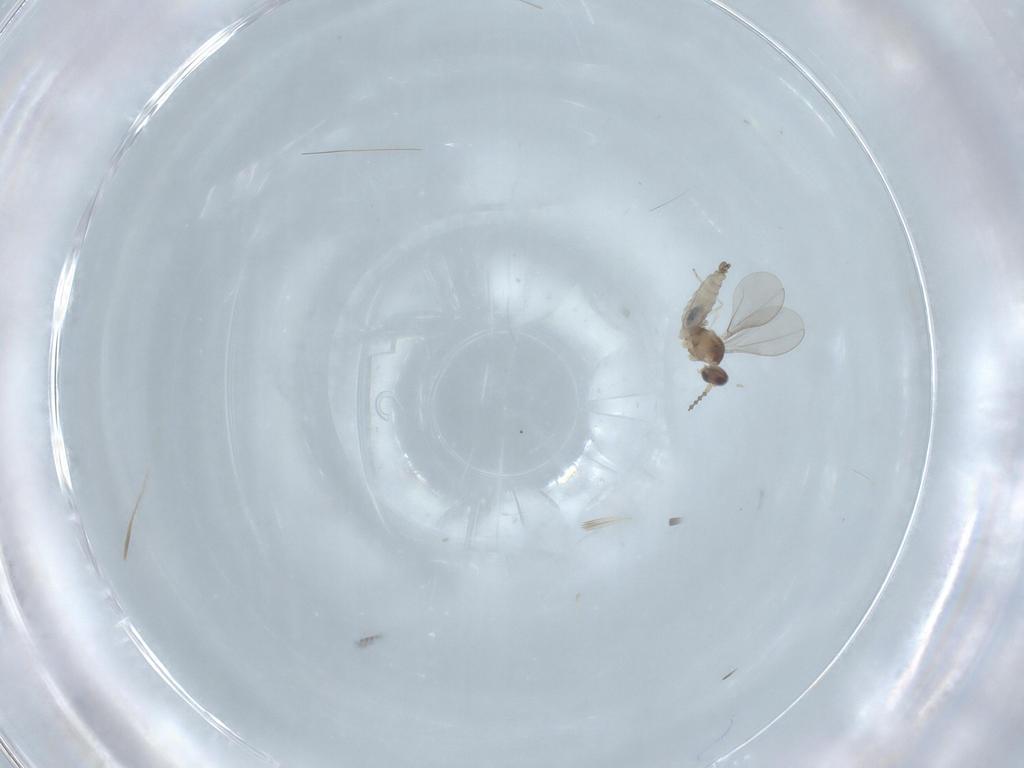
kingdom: Animalia
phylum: Arthropoda
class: Insecta
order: Diptera
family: Cecidomyiidae
